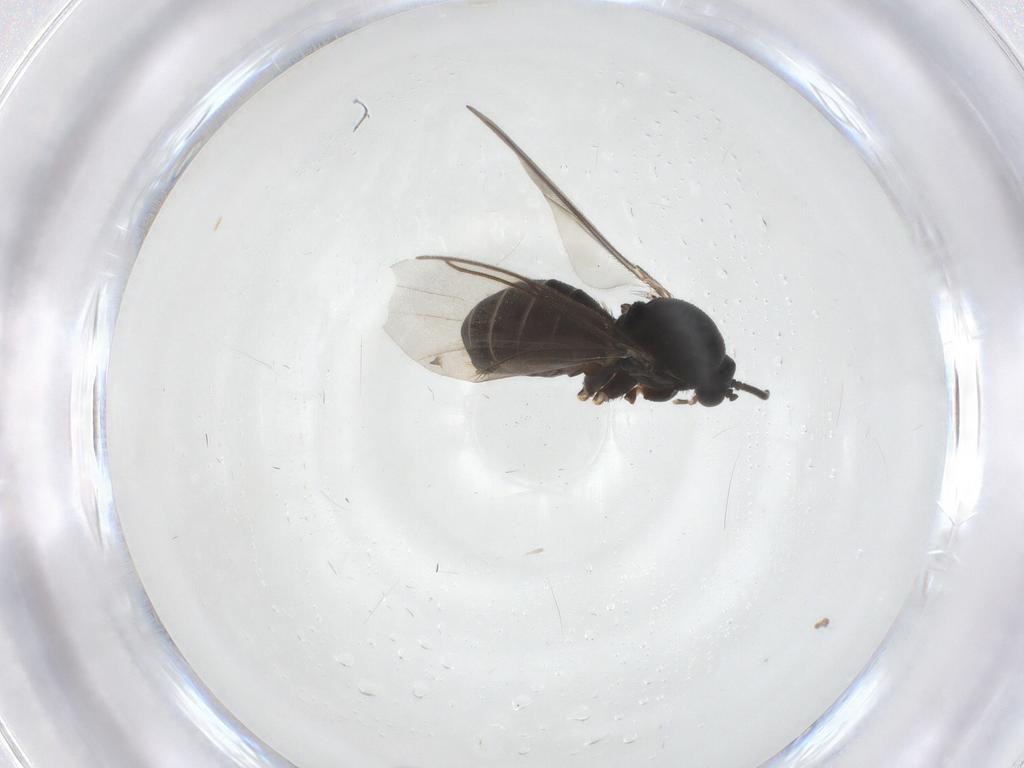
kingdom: Animalia
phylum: Arthropoda
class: Insecta
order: Diptera
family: Mycetophilidae
